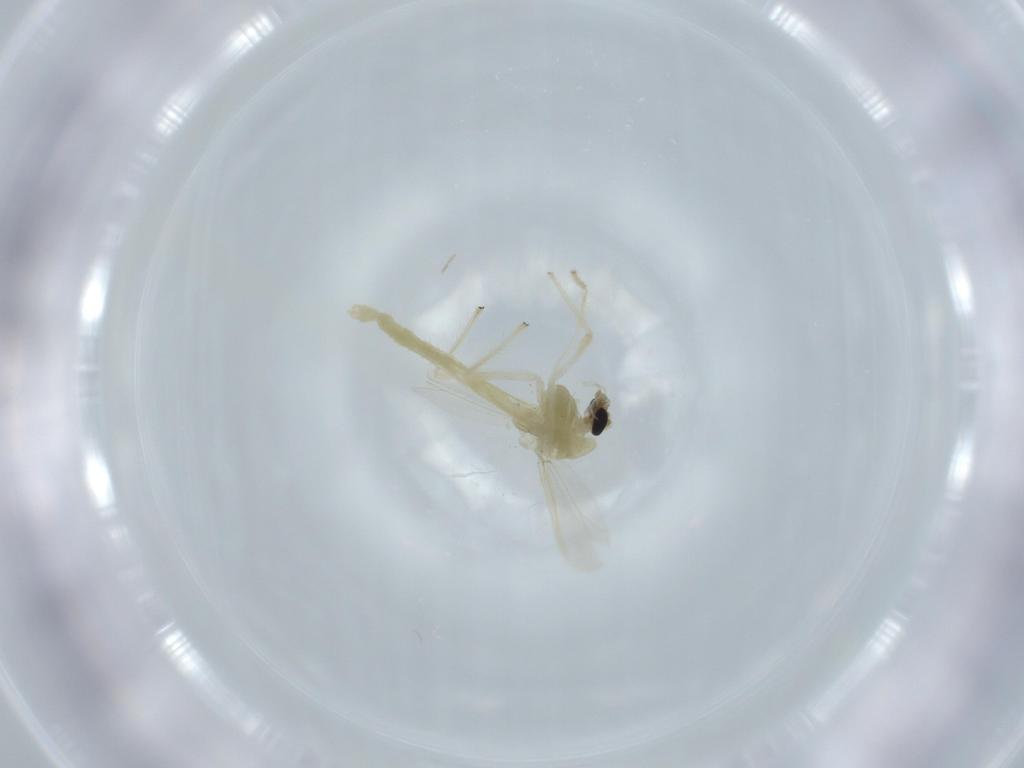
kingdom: Animalia
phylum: Arthropoda
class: Insecta
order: Diptera
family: Chironomidae
